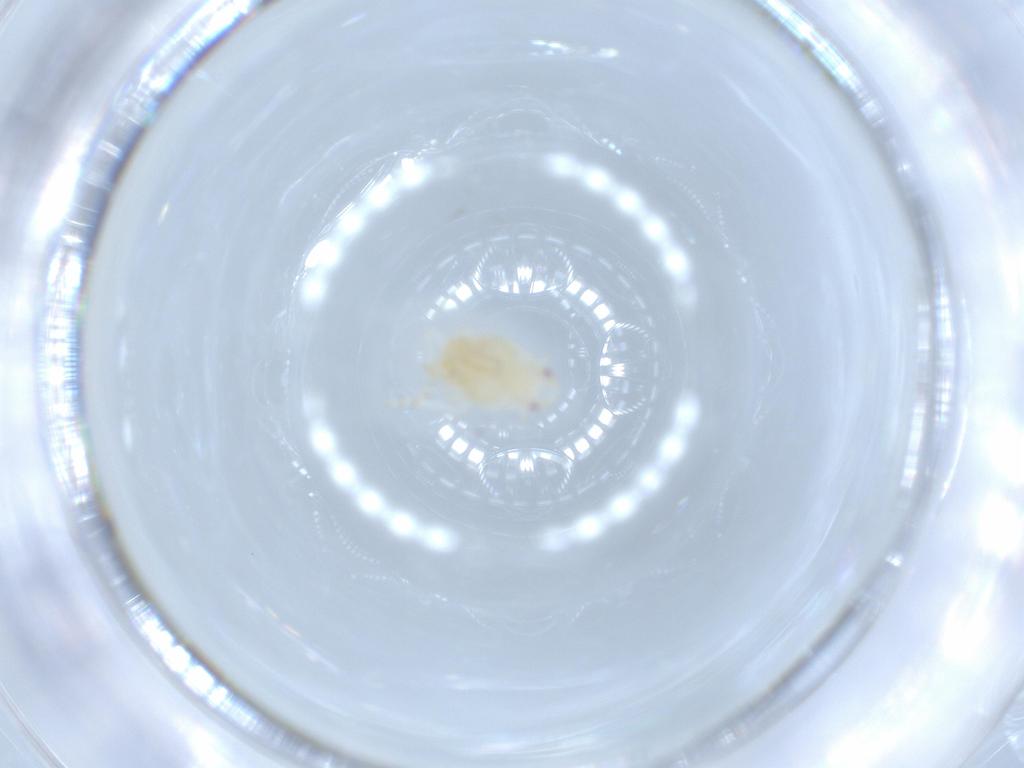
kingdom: Animalia
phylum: Arthropoda
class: Insecta
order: Hemiptera
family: Flatidae
